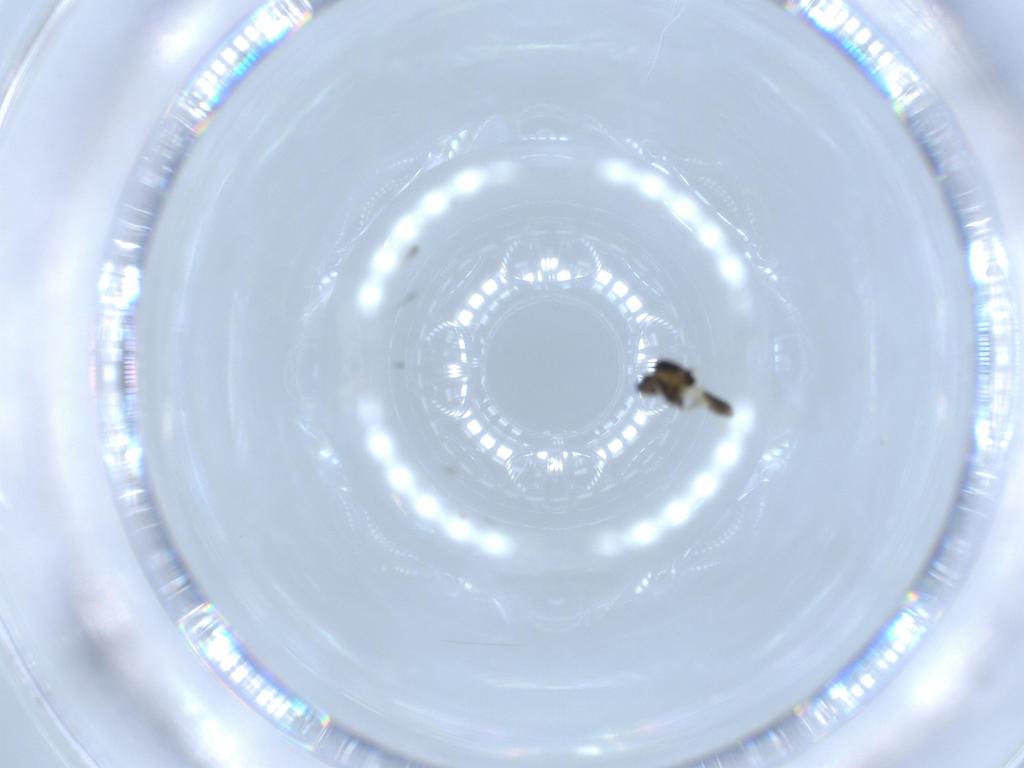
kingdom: Animalia
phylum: Arthropoda
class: Insecta
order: Diptera
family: Chironomidae
